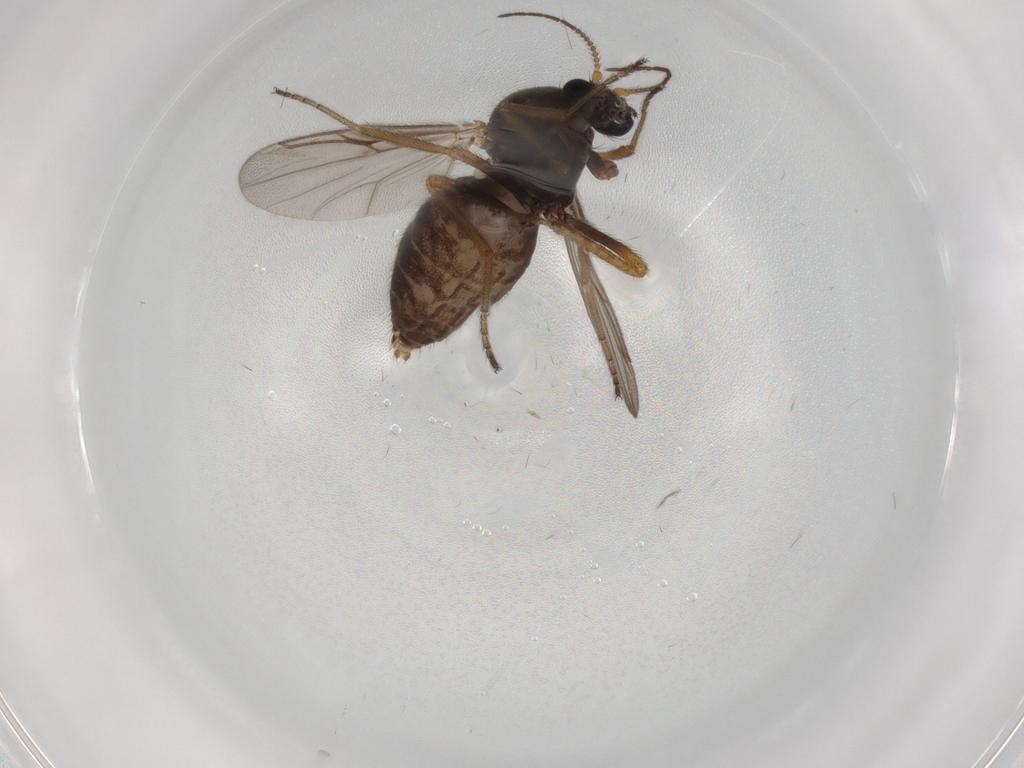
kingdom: Animalia
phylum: Arthropoda
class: Insecta
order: Diptera
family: Ceratopogonidae
